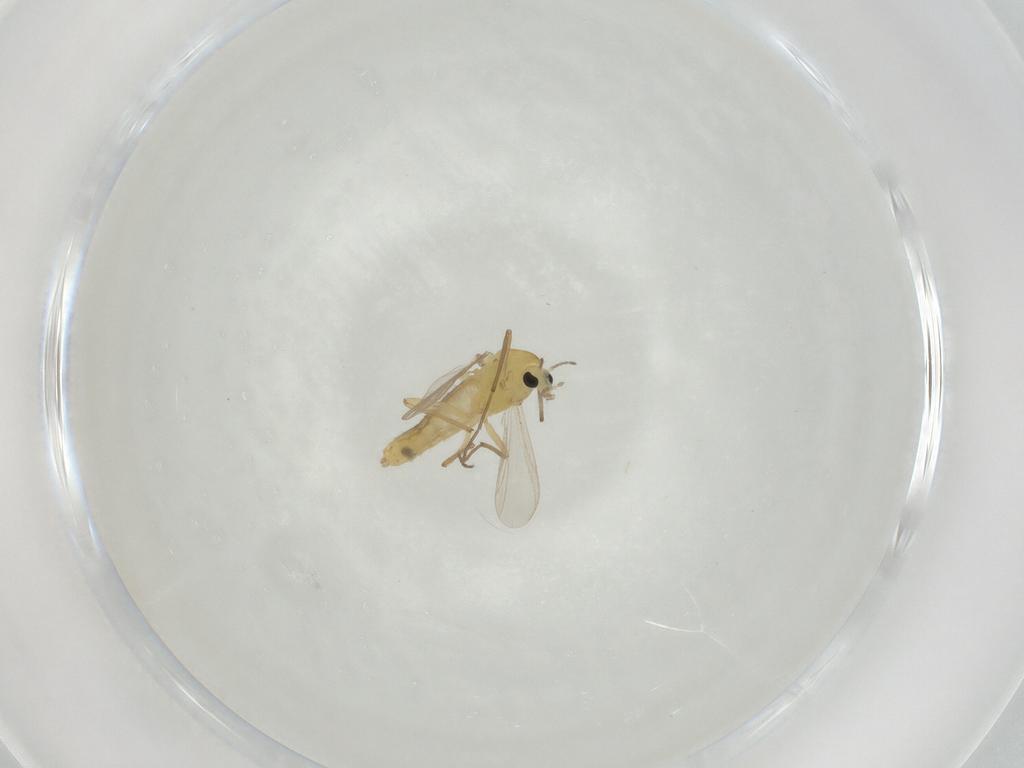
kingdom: Animalia
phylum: Arthropoda
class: Insecta
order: Diptera
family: Chironomidae
